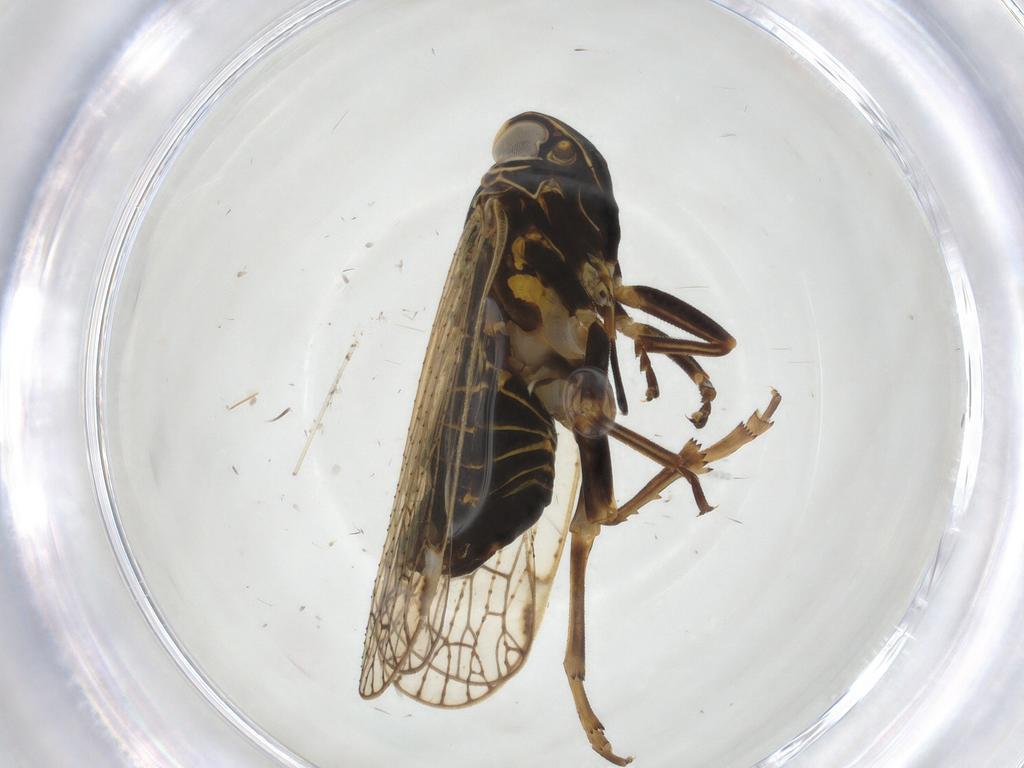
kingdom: Animalia
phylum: Arthropoda
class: Insecta
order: Hemiptera
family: Cixiidae
